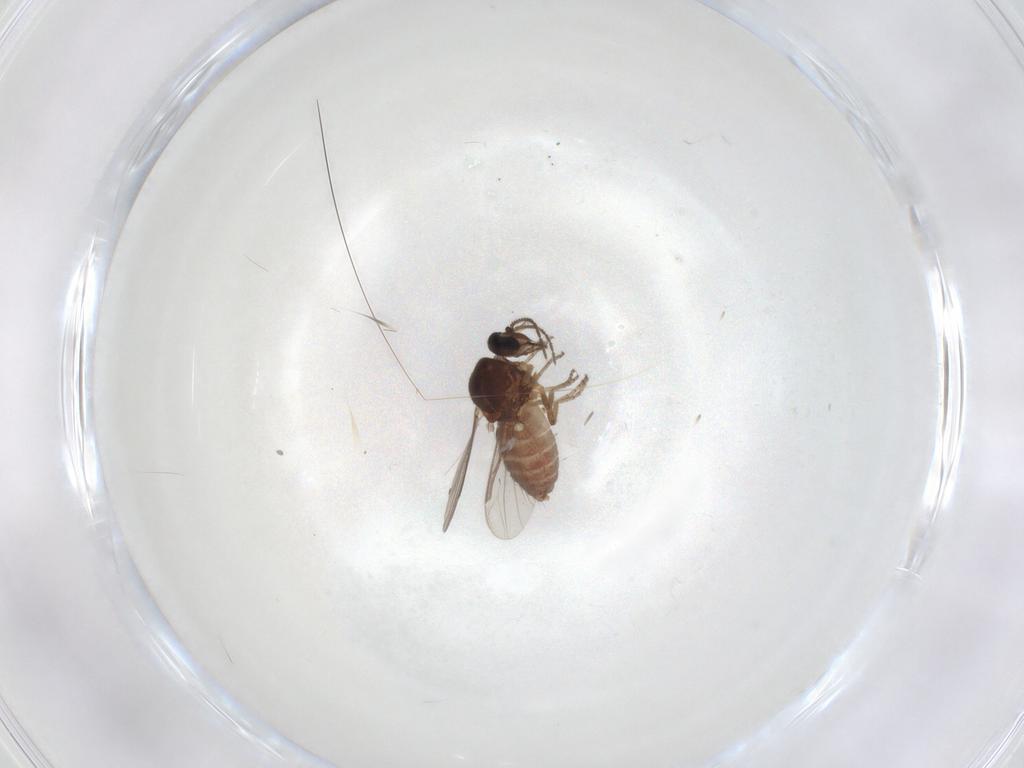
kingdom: Animalia
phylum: Arthropoda
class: Insecta
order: Diptera
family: Ceratopogonidae
